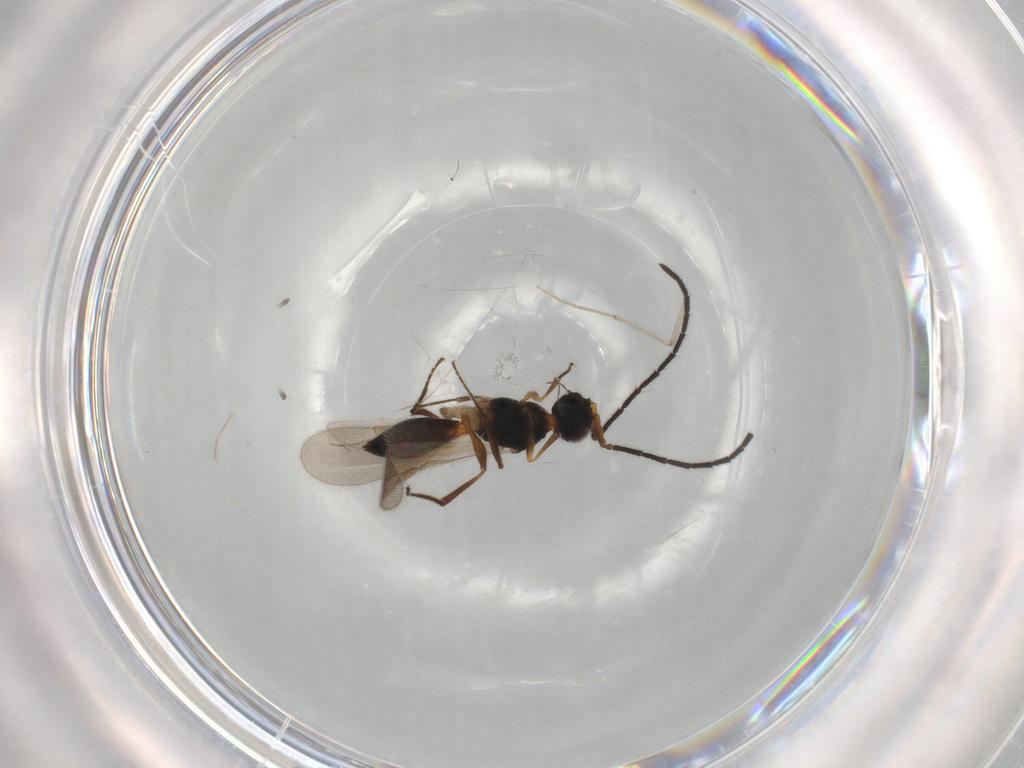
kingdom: Animalia
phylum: Arthropoda
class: Insecta
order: Hymenoptera
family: Megaspilidae
